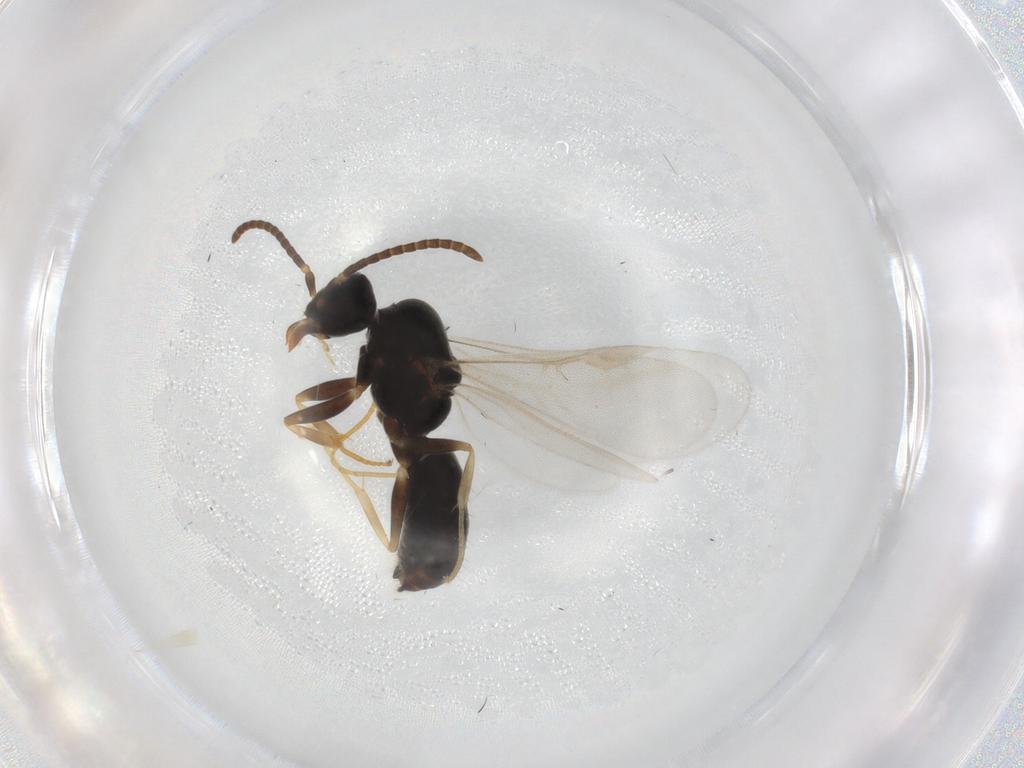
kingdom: Animalia
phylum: Arthropoda
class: Insecta
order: Hymenoptera
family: Formicidae
